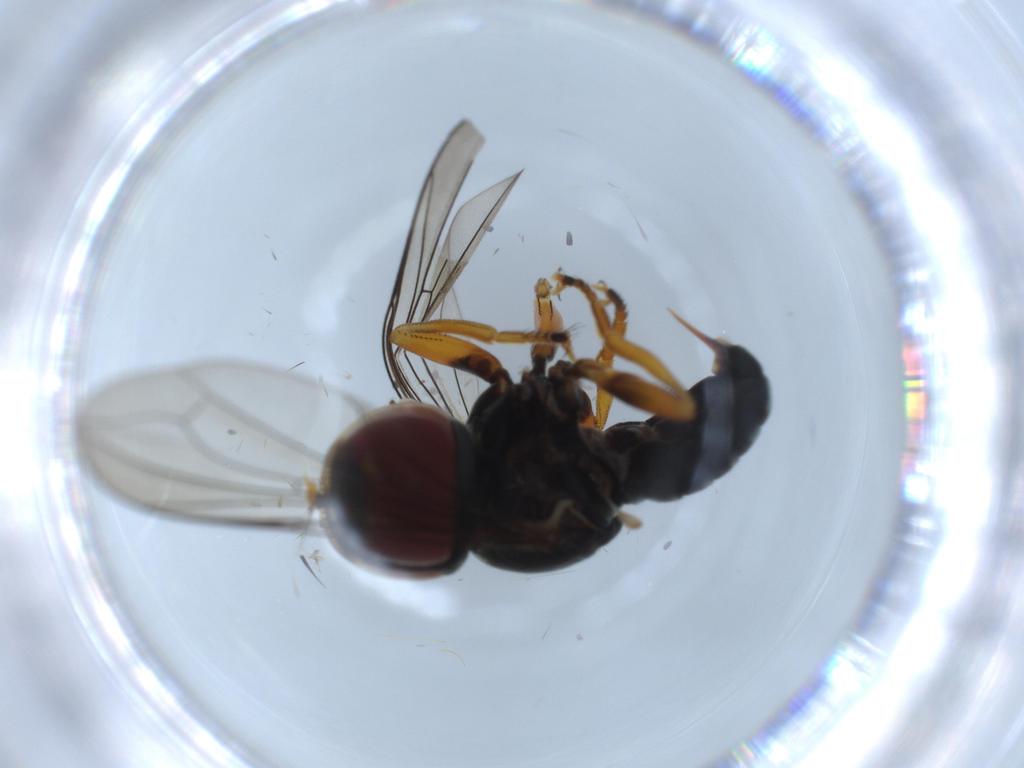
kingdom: Animalia
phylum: Arthropoda
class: Insecta
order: Diptera
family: Pipunculidae
